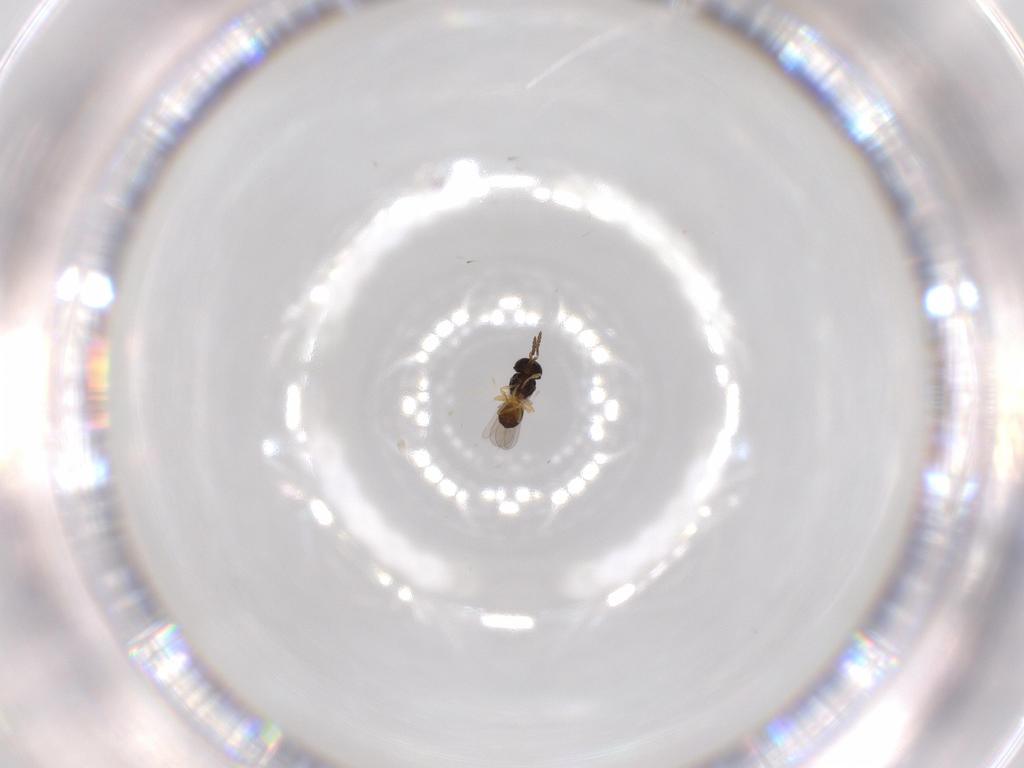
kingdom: Animalia
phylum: Arthropoda
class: Insecta
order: Hymenoptera
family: Scelionidae
